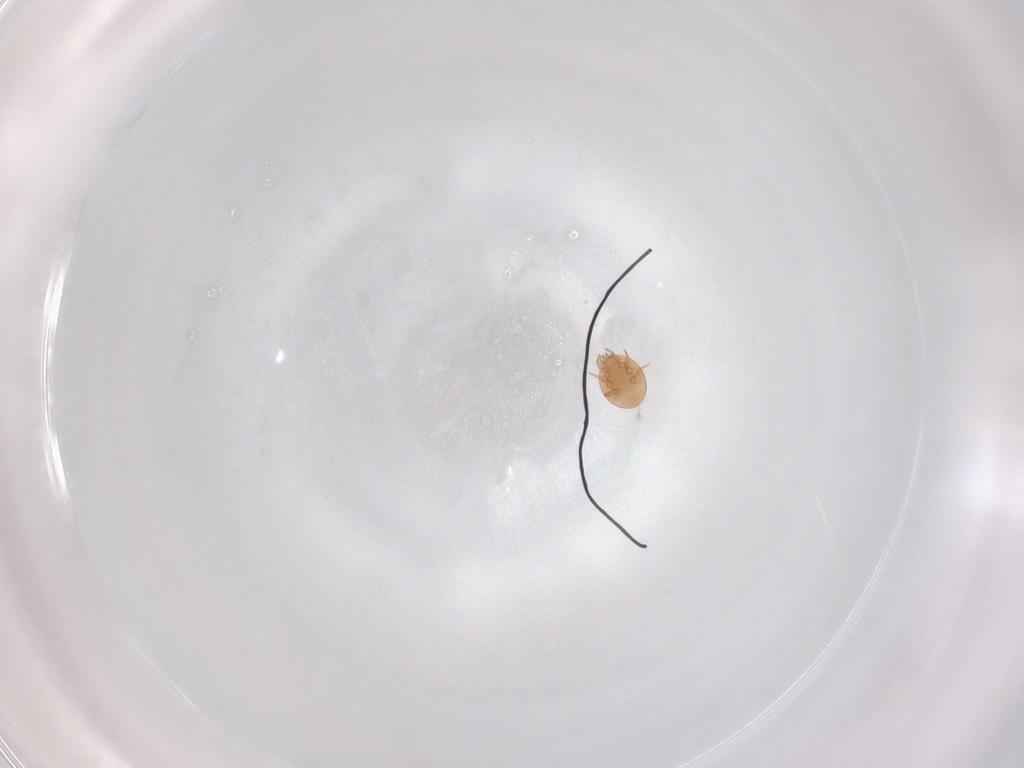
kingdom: Animalia
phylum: Arthropoda
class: Arachnida
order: Mesostigmata
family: Trematuridae
